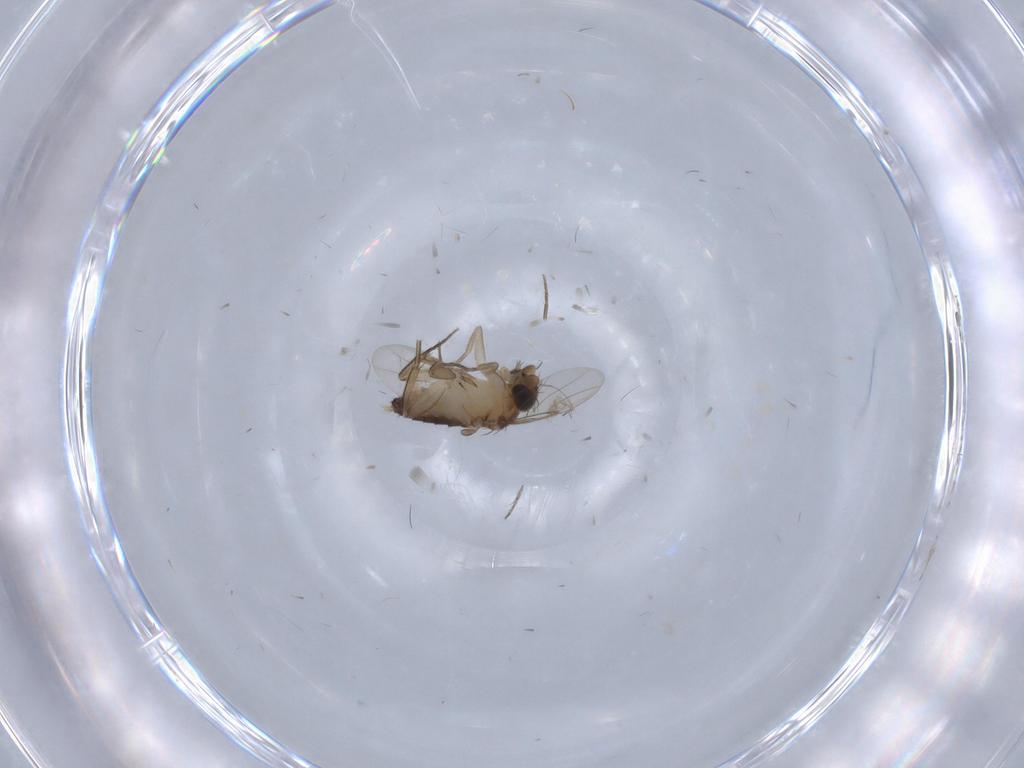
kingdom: Animalia
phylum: Arthropoda
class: Insecta
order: Diptera
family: Phoridae
